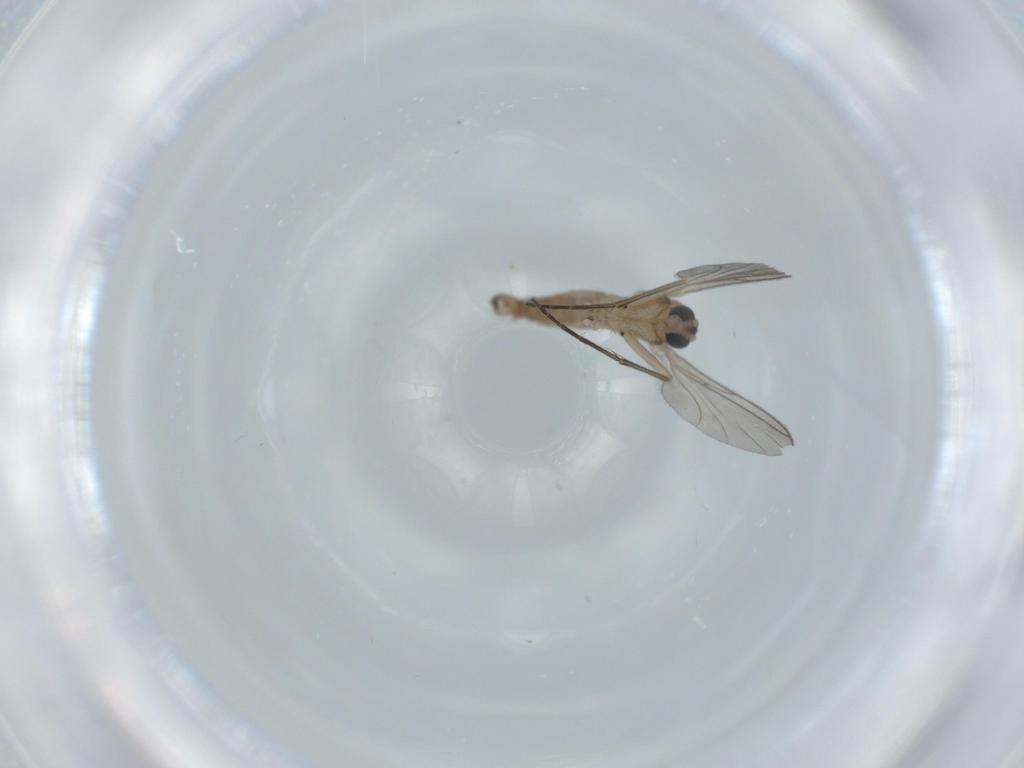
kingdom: Animalia
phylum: Arthropoda
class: Insecta
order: Diptera
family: Sciaridae
